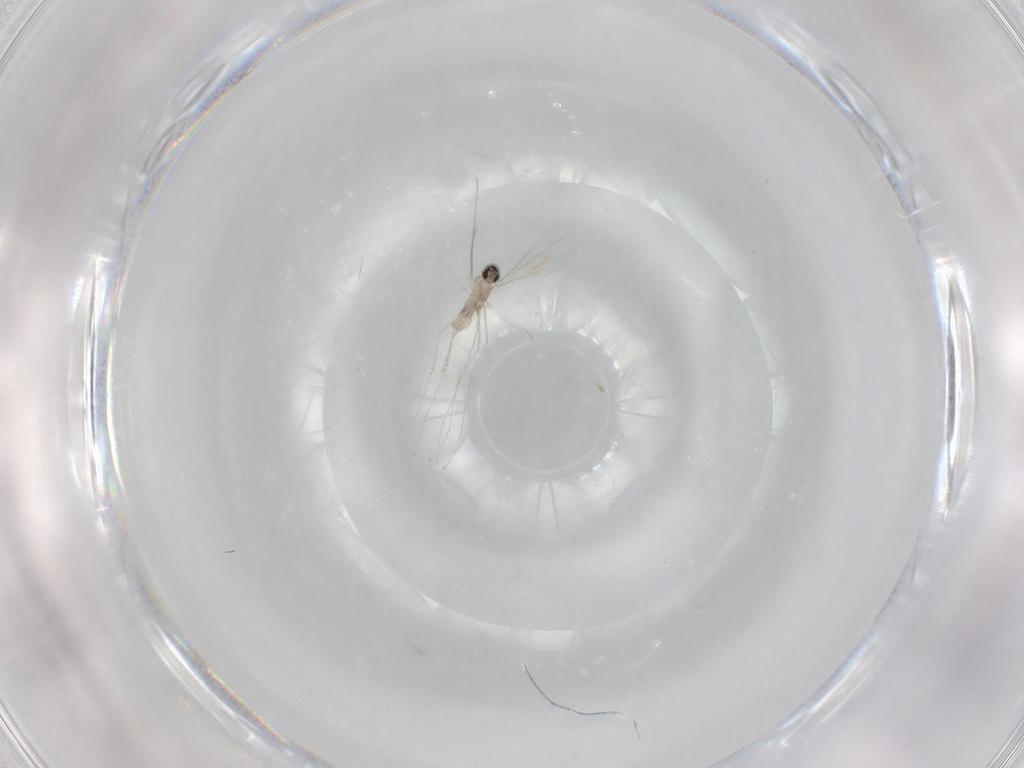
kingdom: Animalia
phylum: Arthropoda
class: Insecta
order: Diptera
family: Cecidomyiidae
